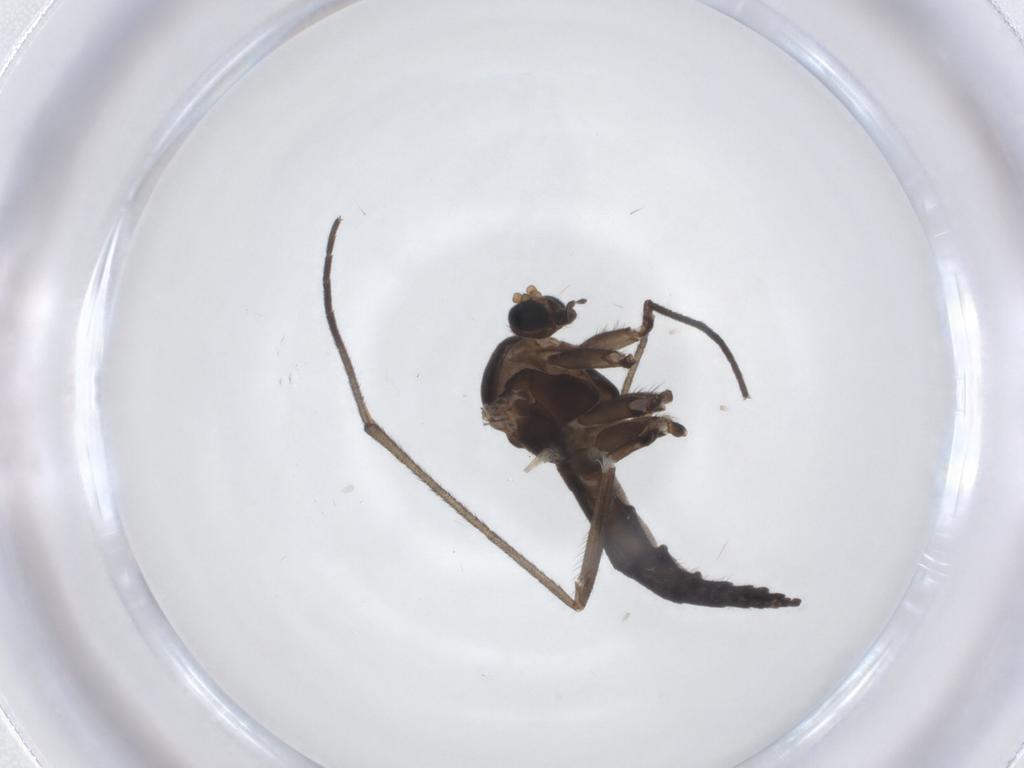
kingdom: Animalia
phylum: Arthropoda
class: Insecta
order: Diptera
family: Sciaridae
